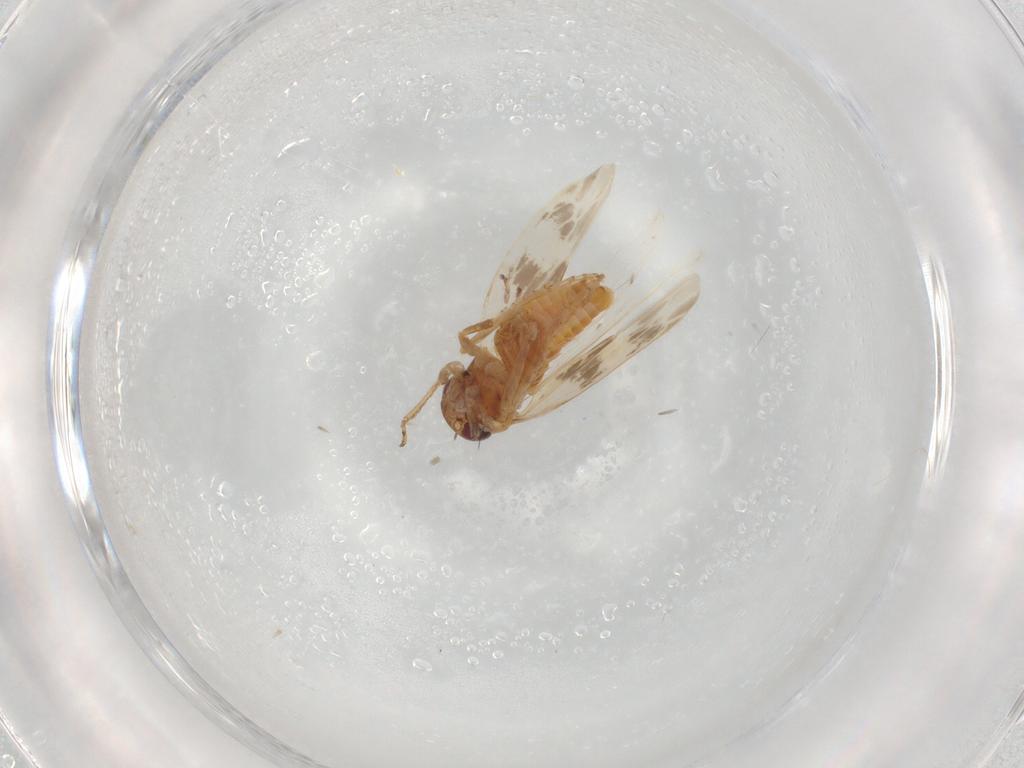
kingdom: Animalia
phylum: Arthropoda
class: Insecta
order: Hemiptera
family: Cicadellidae
